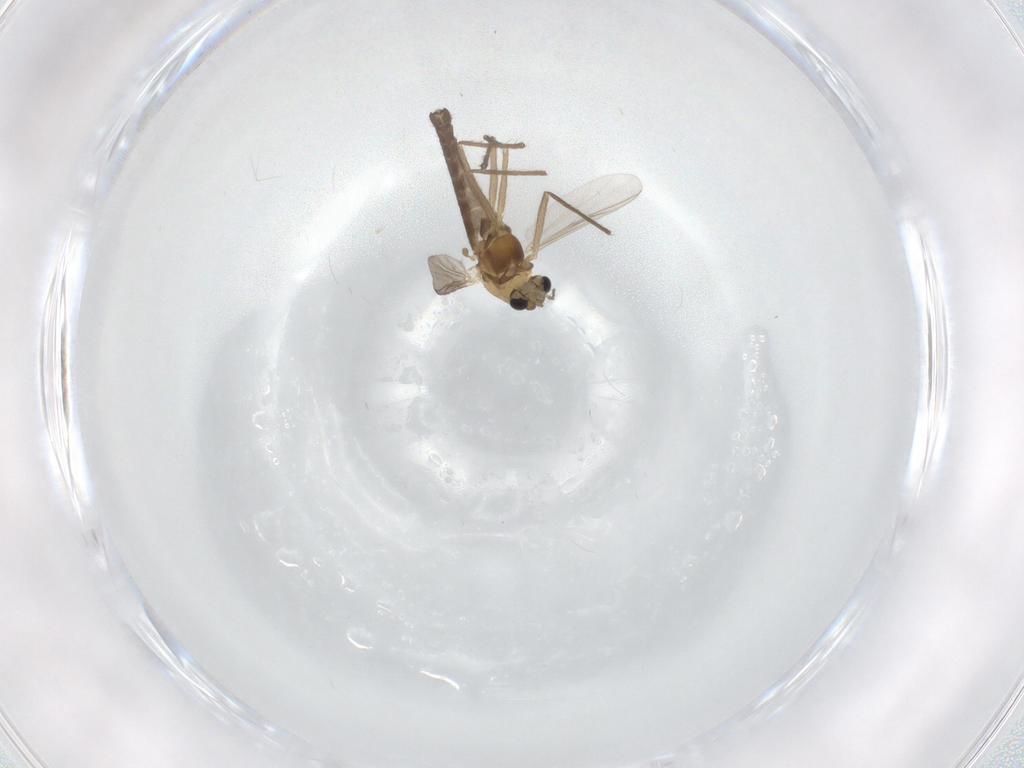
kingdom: Animalia
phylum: Arthropoda
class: Insecta
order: Diptera
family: Chironomidae
